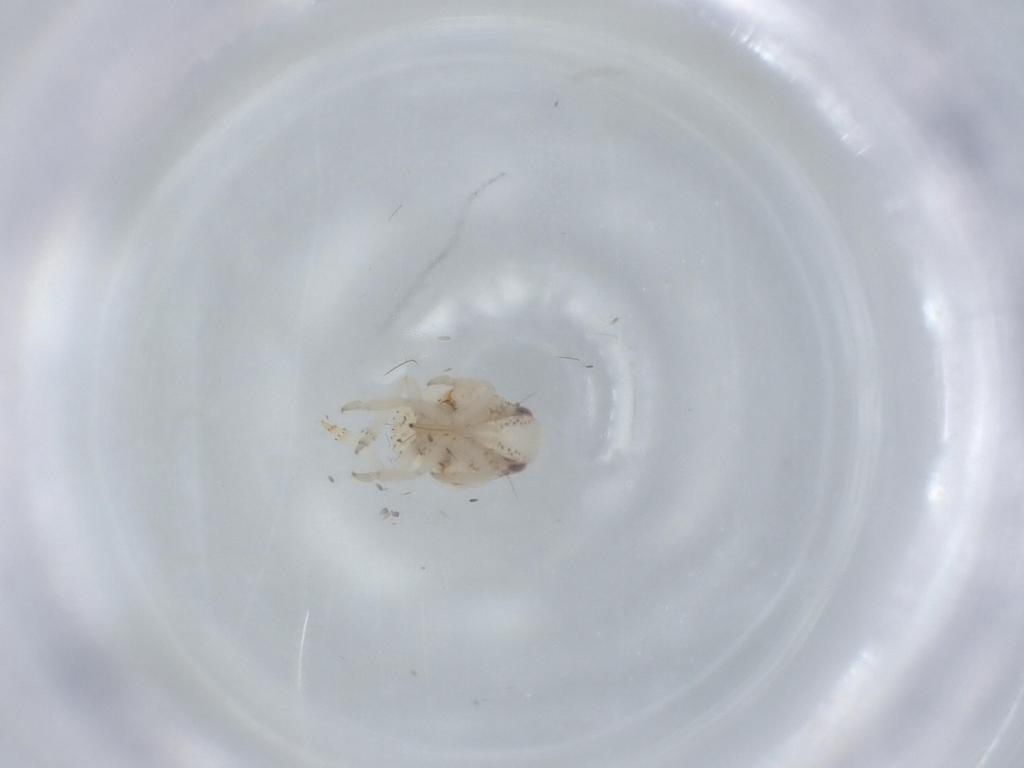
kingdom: Animalia
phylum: Arthropoda
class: Insecta
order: Hemiptera
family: Acanaloniidae
